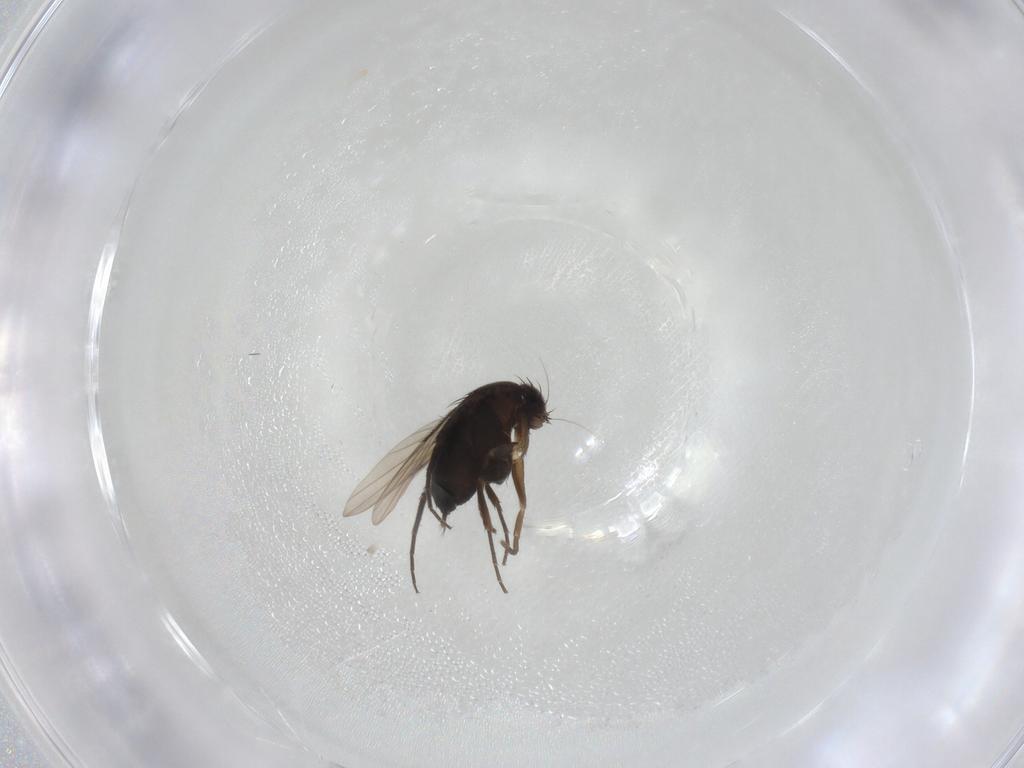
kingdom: Animalia
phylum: Arthropoda
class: Insecta
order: Diptera
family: Phoridae
